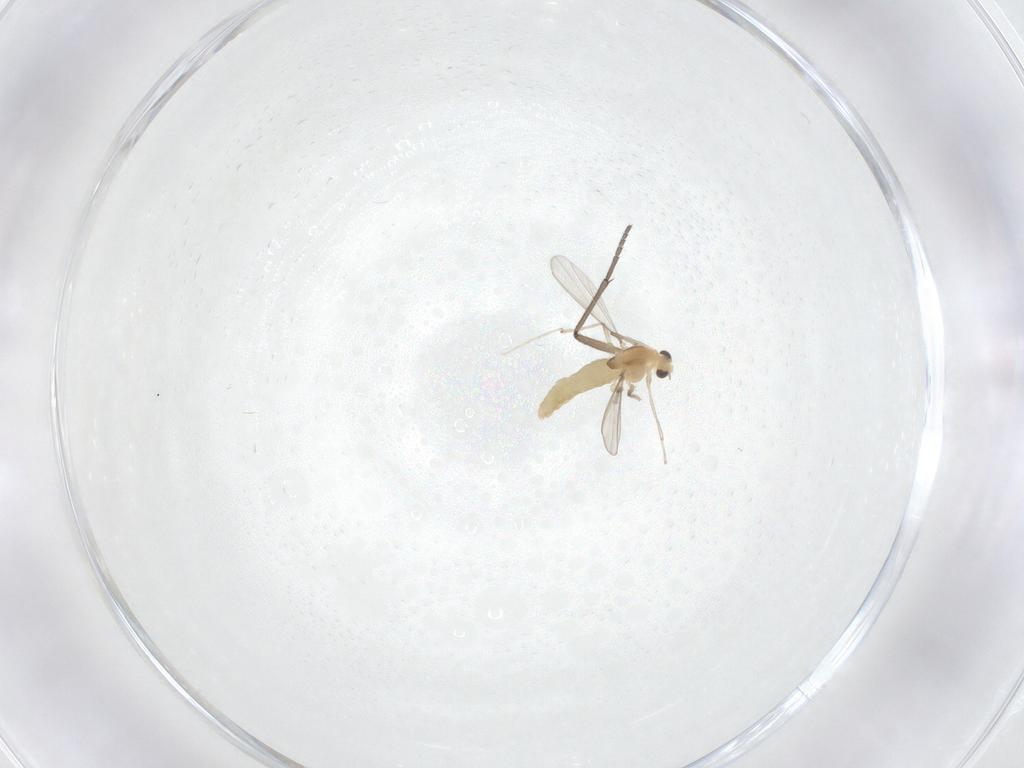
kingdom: Animalia
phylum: Arthropoda
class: Insecta
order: Diptera
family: Chironomidae
